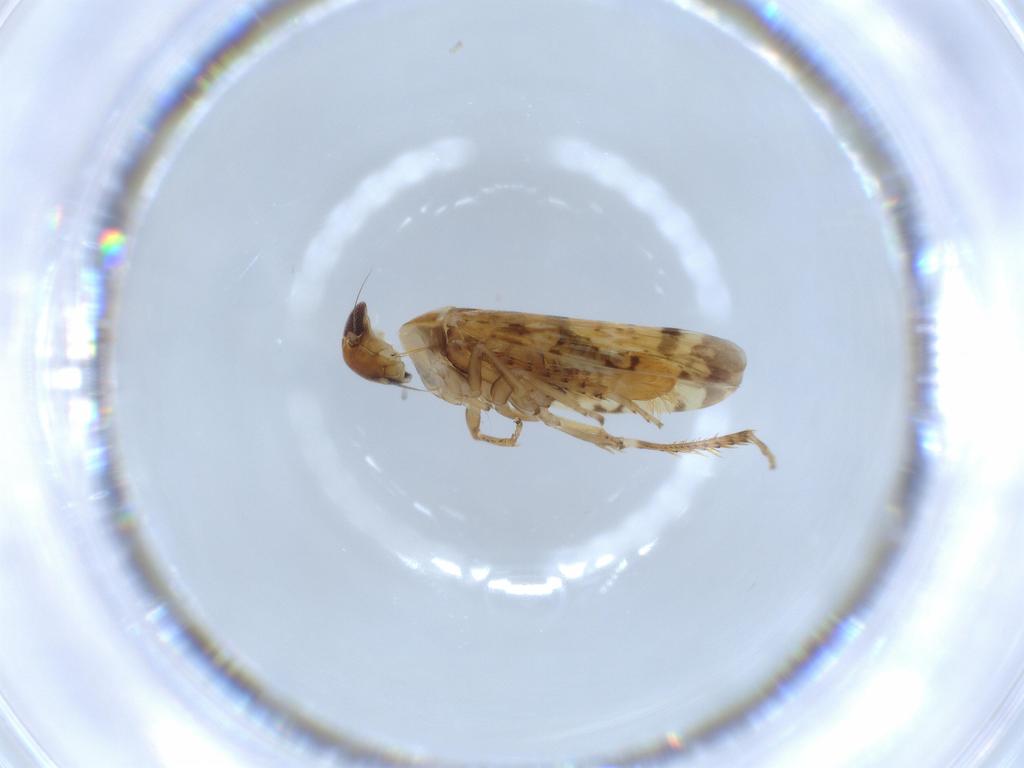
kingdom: Animalia
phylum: Arthropoda
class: Insecta
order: Hemiptera
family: Cicadellidae
